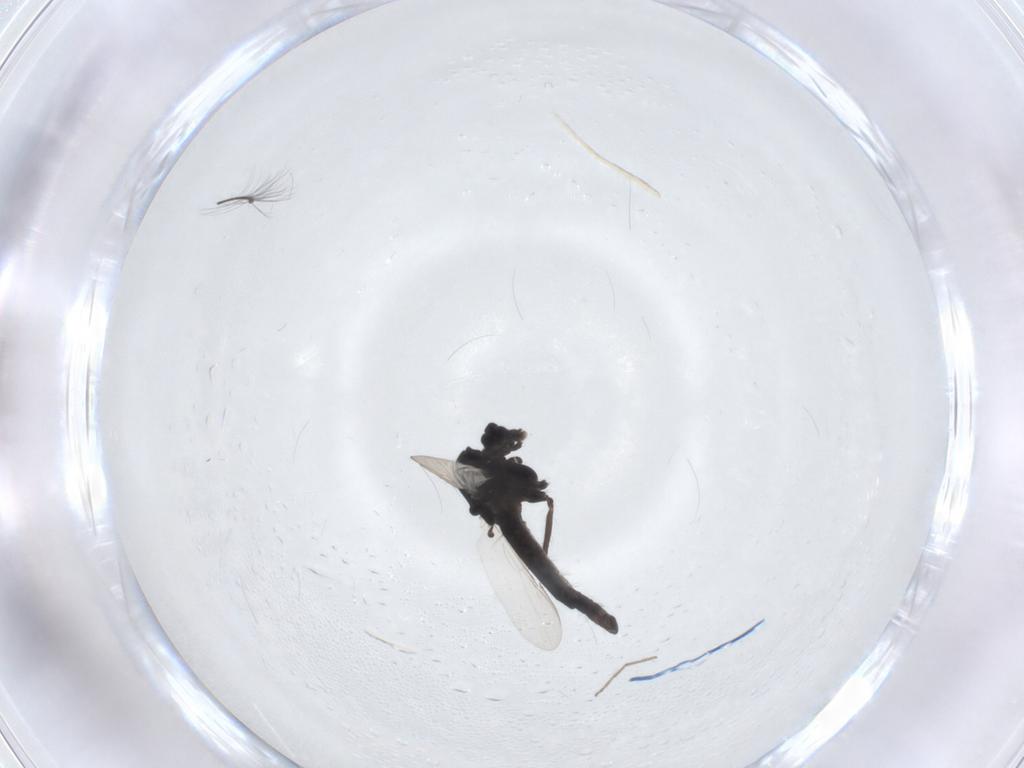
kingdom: Animalia
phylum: Arthropoda
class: Insecta
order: Diptera
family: Chironomidae
